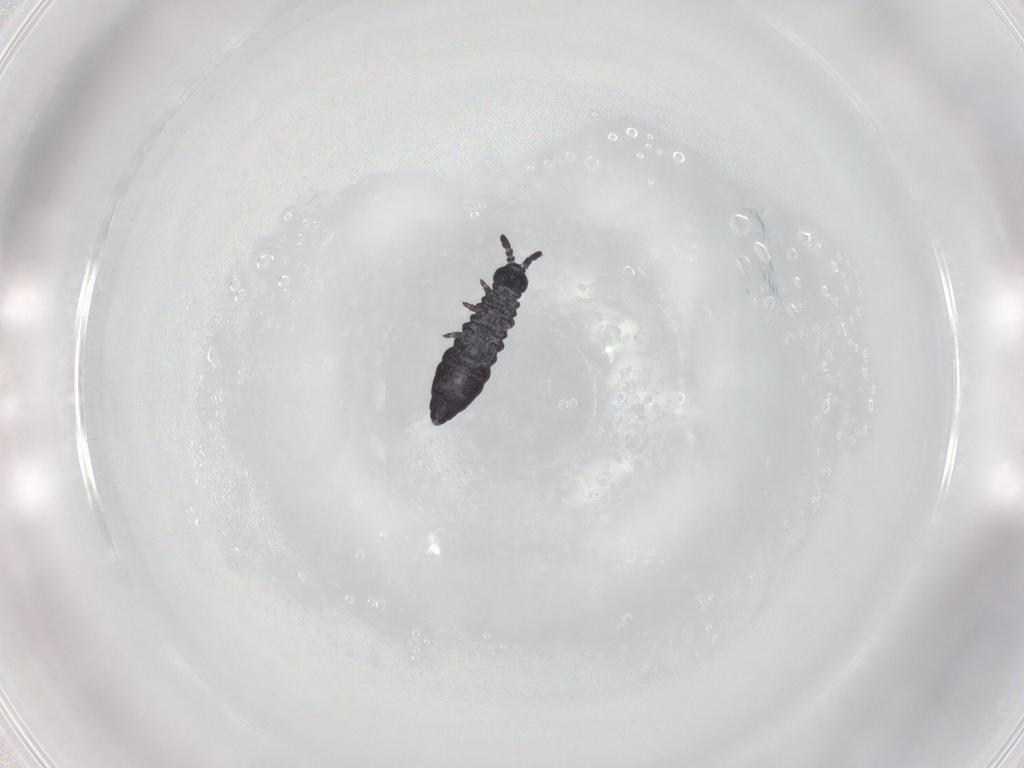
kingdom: Animalia
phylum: Arthropoda
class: Collembola
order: Poduromorpha
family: Hypogastruridae
